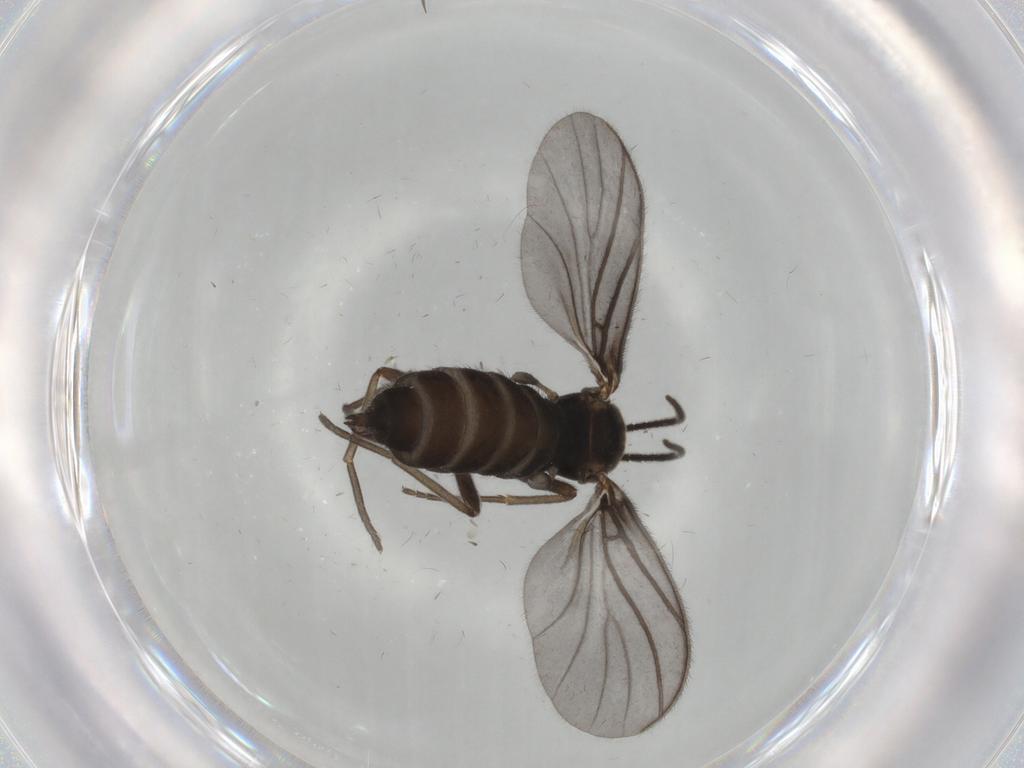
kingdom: Animalia
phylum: Arthropoda
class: Insecta
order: Diptera
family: Sciaridae
